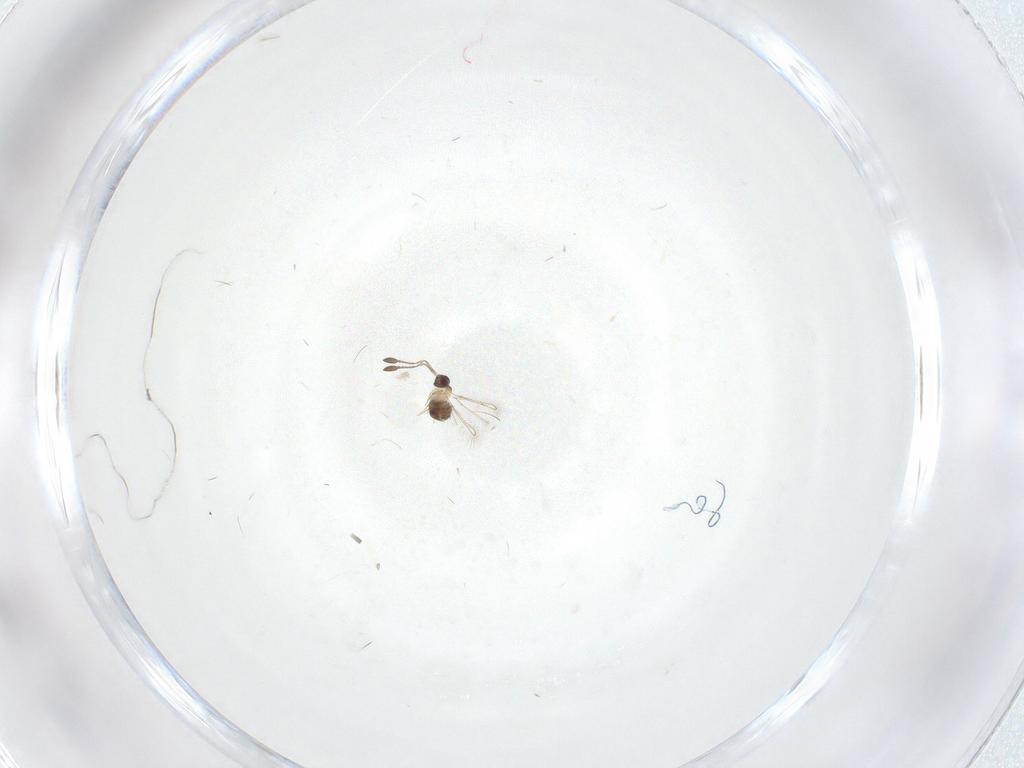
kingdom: Animalia
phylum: Arthropoda
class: Insecta
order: Hymenoptera
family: Mymaridae
